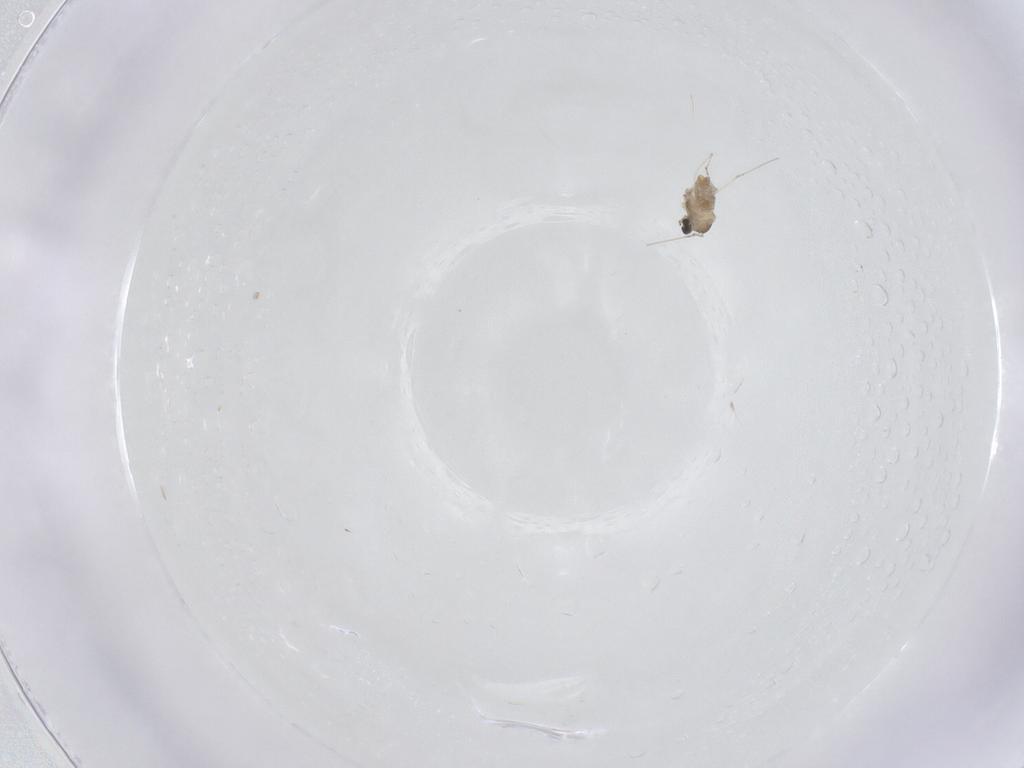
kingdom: Animalia
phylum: Arthropoda
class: Insecta
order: Diptera
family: Cecidomyiidae
